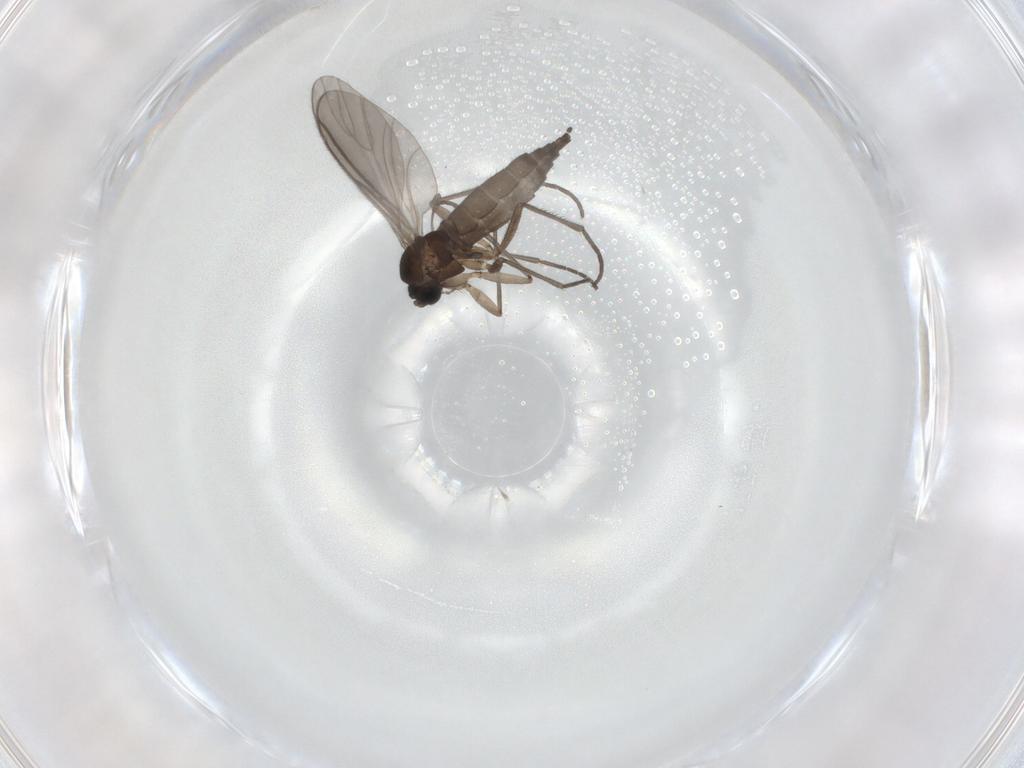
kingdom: Animalia
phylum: Arthropoda
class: Insecta
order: Diptera
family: Sciaridae
